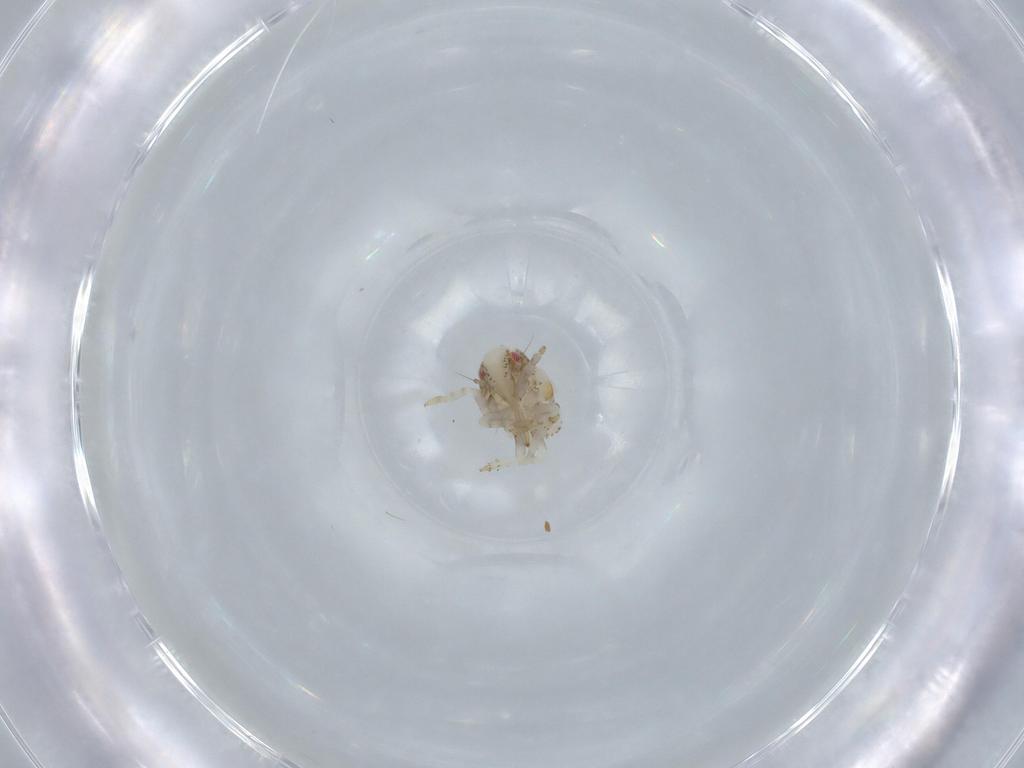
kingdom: Animalia
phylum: Arthropoda
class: Insecta
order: Hemiptera
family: Acanaloniidae
